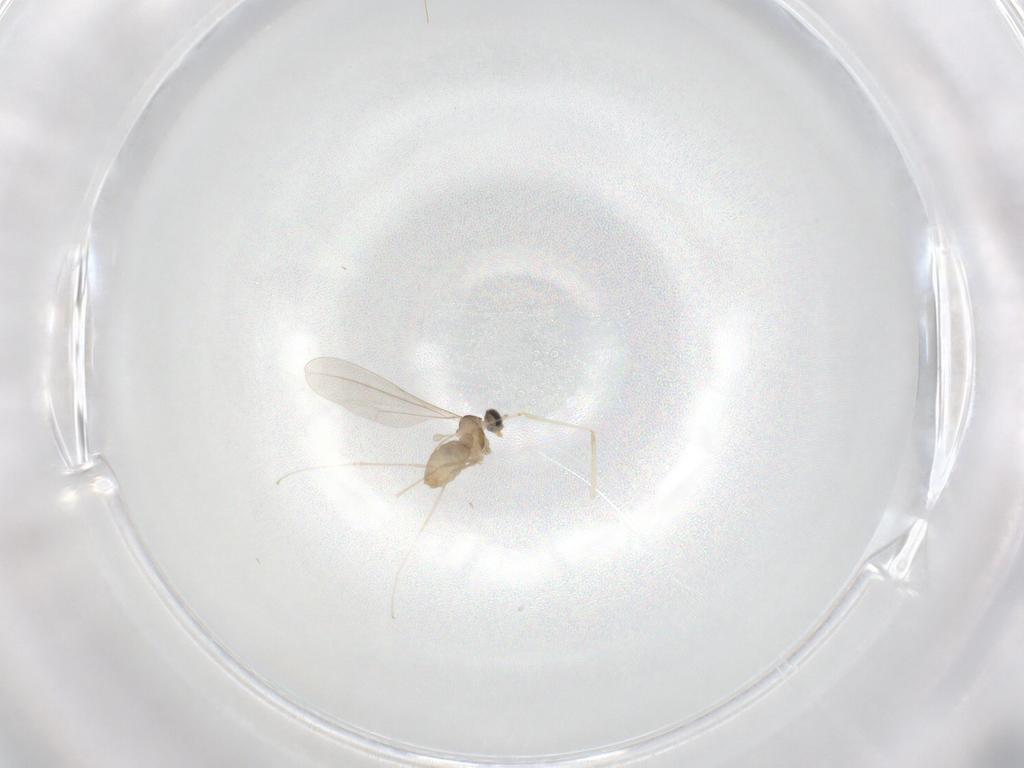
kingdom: Animalia
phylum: Arthropoda
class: Insecta
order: Diptera
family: Cecidomyiidae
